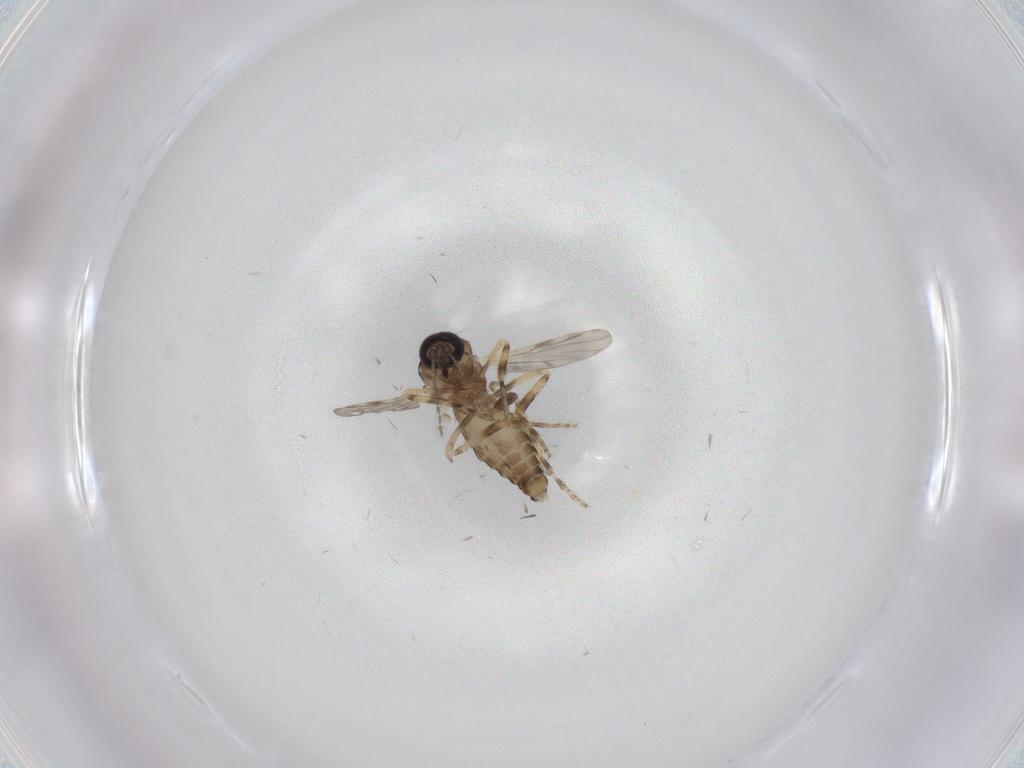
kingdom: Animalia
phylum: Arthropoda
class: Insecta
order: Diptera
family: Ceratopogonidae
